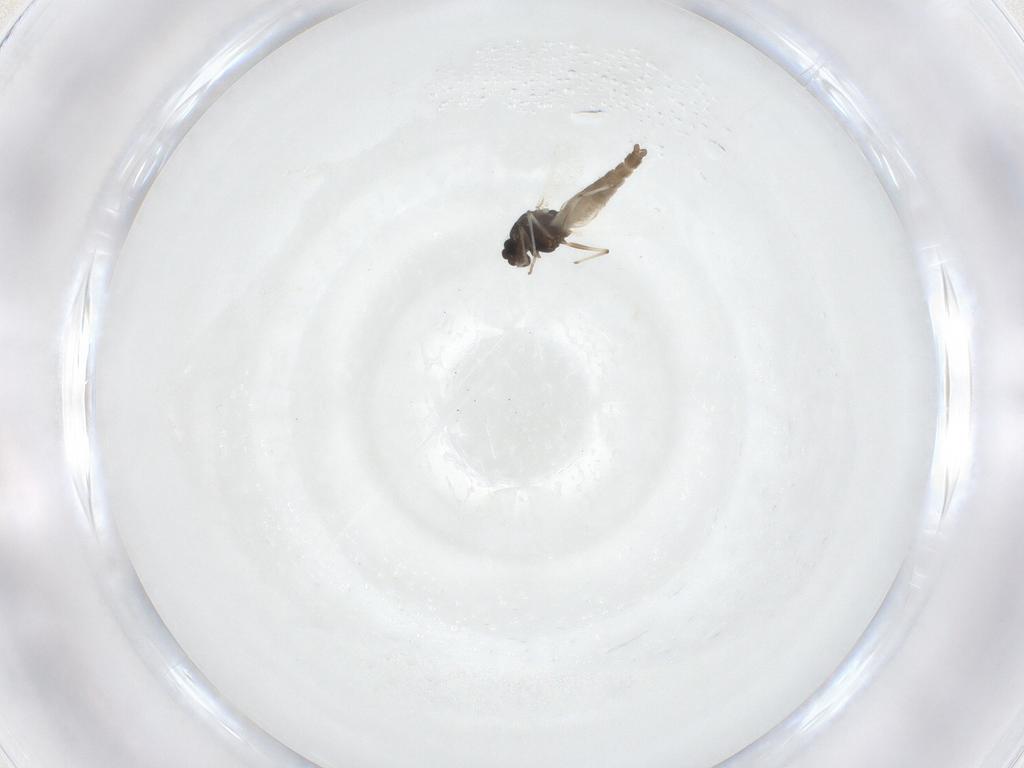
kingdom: Animalia
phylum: Arthropoda
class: Insecta
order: Diptera
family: Chironomidae
